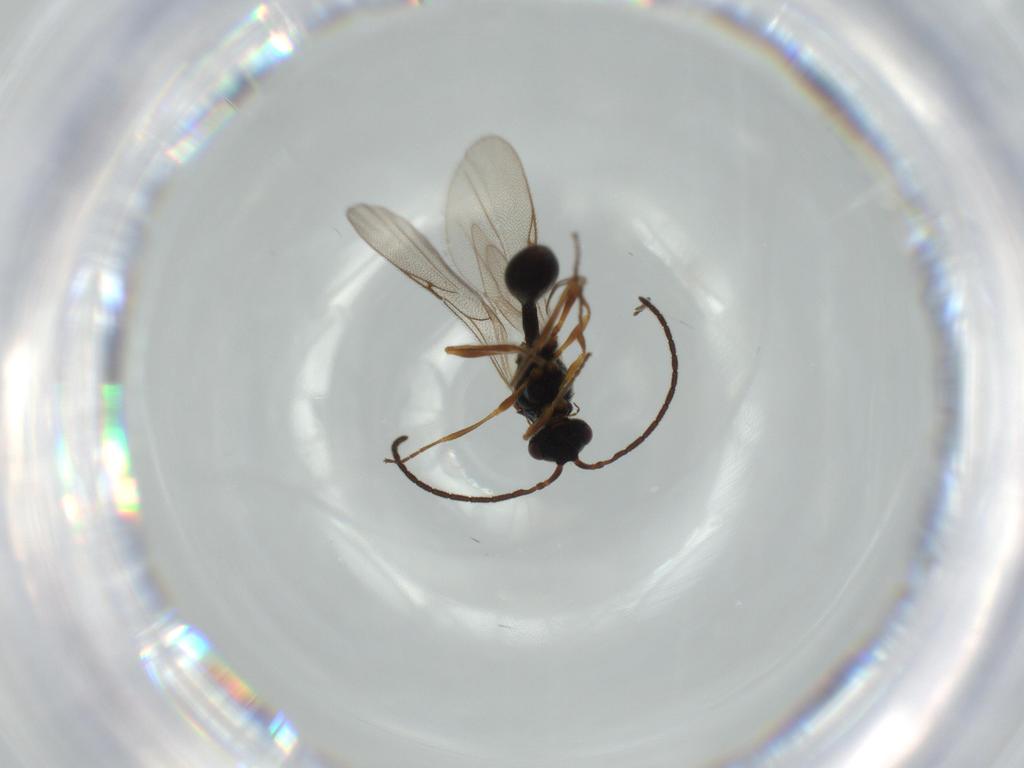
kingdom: Animalia
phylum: Arthropoda
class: Insecta
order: Hymenoptera
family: Diapriidae
